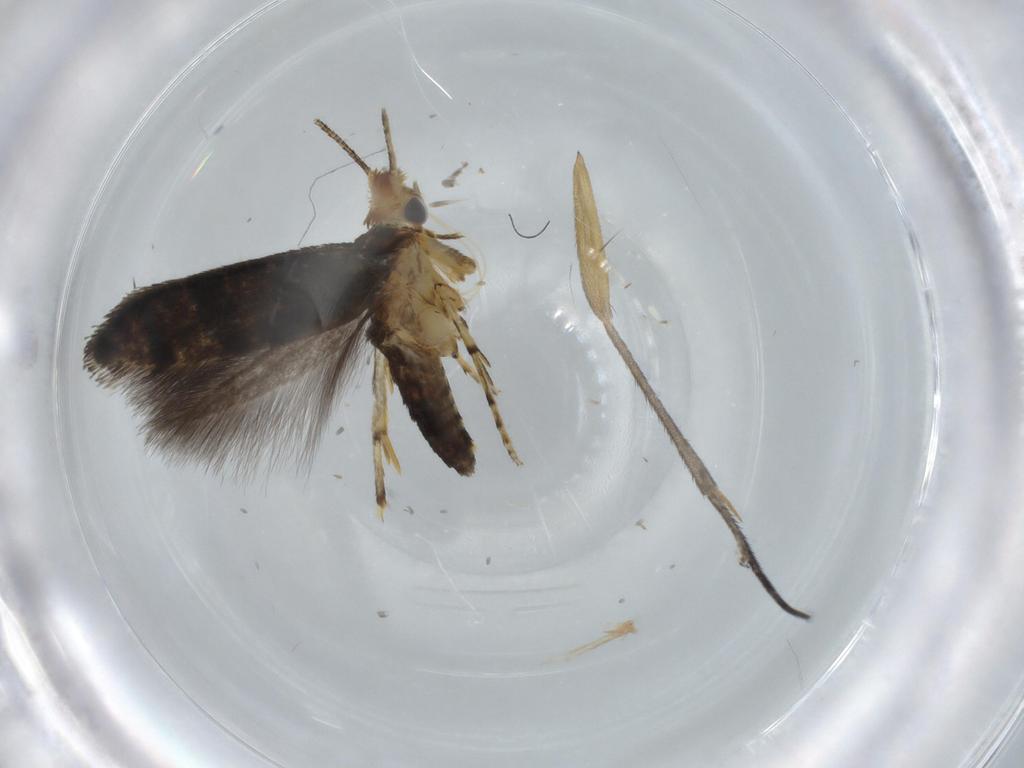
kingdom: Animalia
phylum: Arthropoda
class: Insecta
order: Lepidoptera
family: Argyresthiidae
